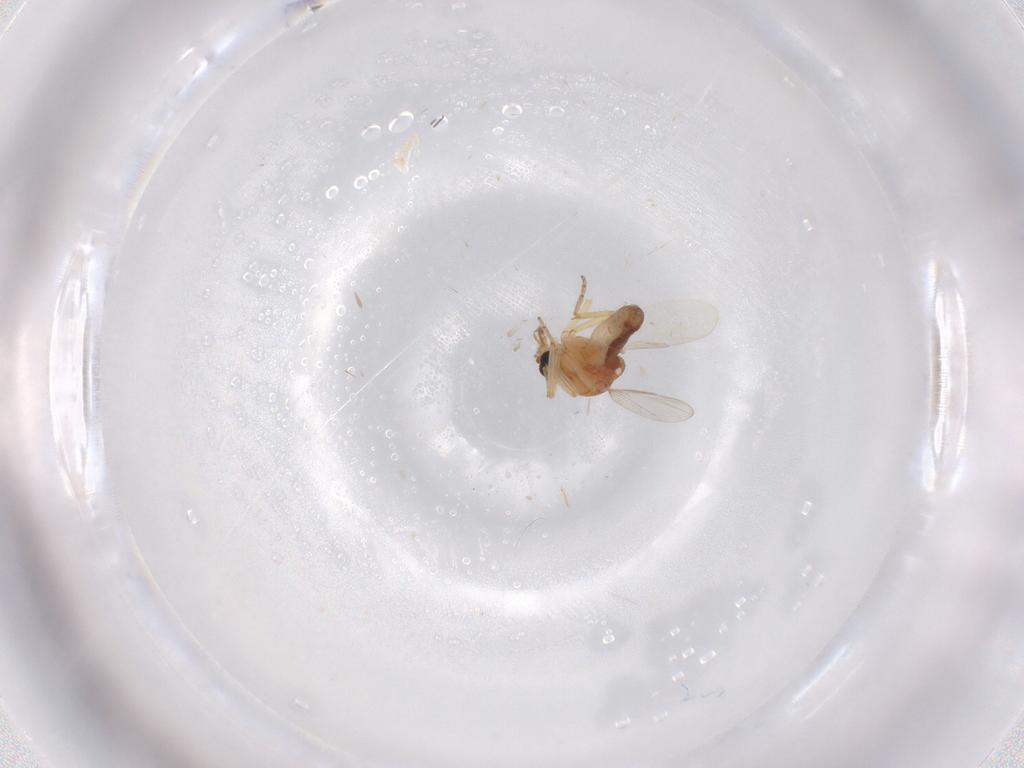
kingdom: Animalia
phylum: Arthropoda
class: Insecta
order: Diptera
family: Ceratopogonidae
